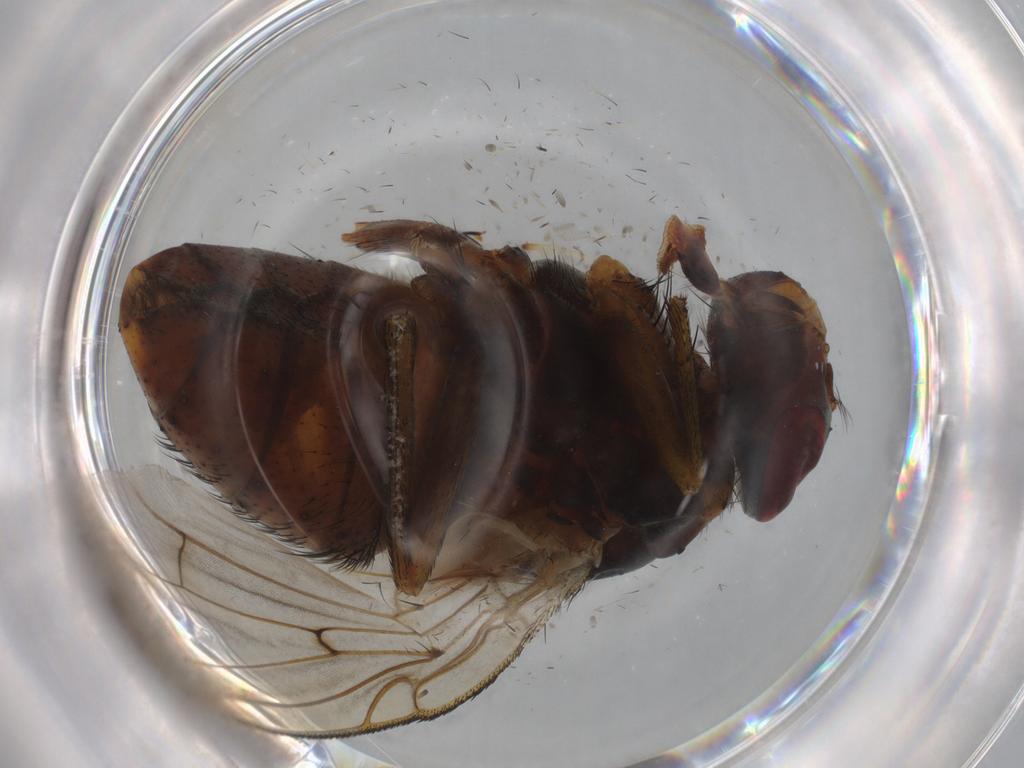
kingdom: Animalia
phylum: Arthropoda
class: Insecta
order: Diptera
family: Tachinidae
